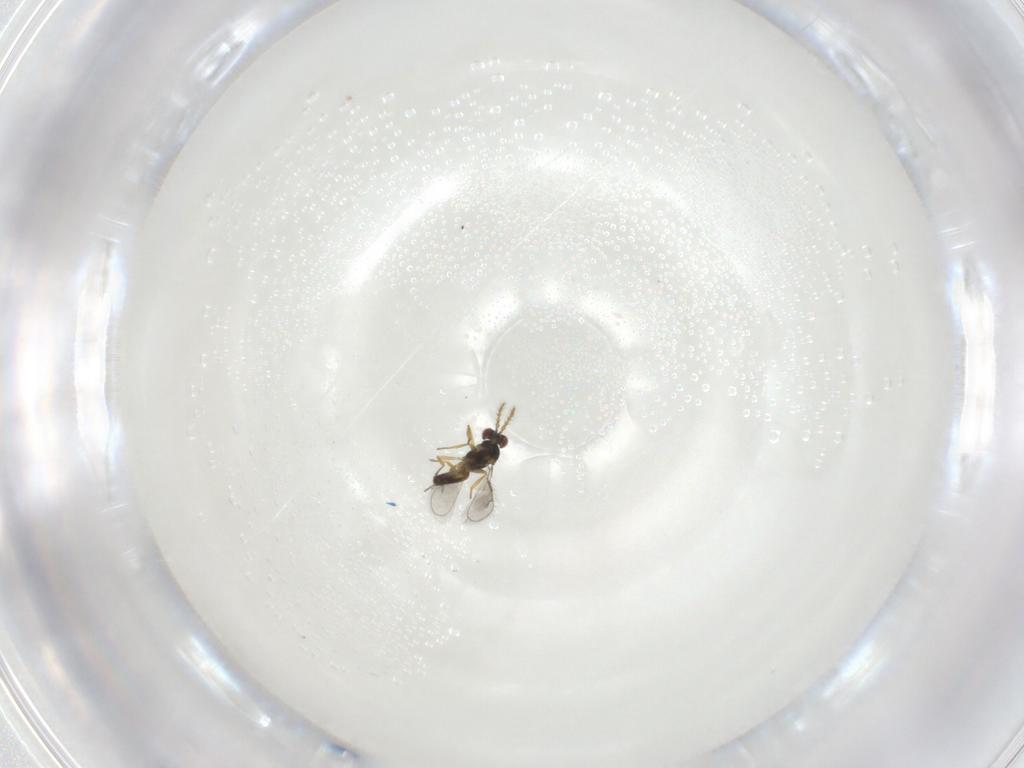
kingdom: Animalia
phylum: Arthropoda
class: Insecta
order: Hymenoptera
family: Eulophidae
